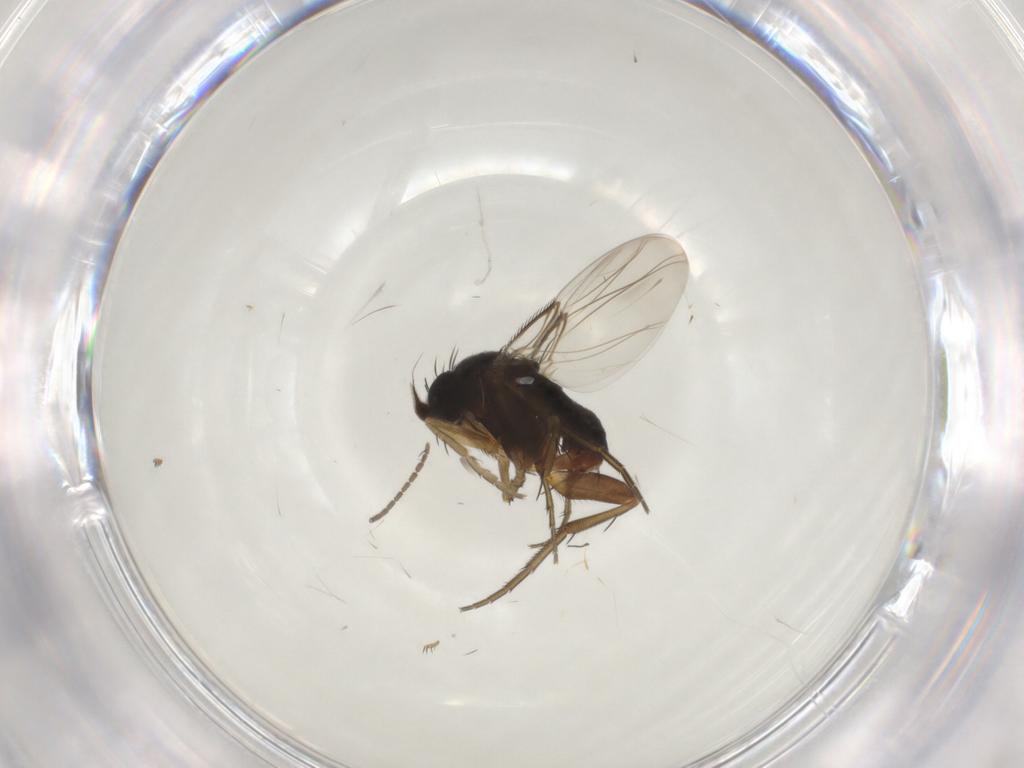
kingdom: Animalia
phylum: Arthropoda
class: Insecta
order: Diptera
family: Phoridae
